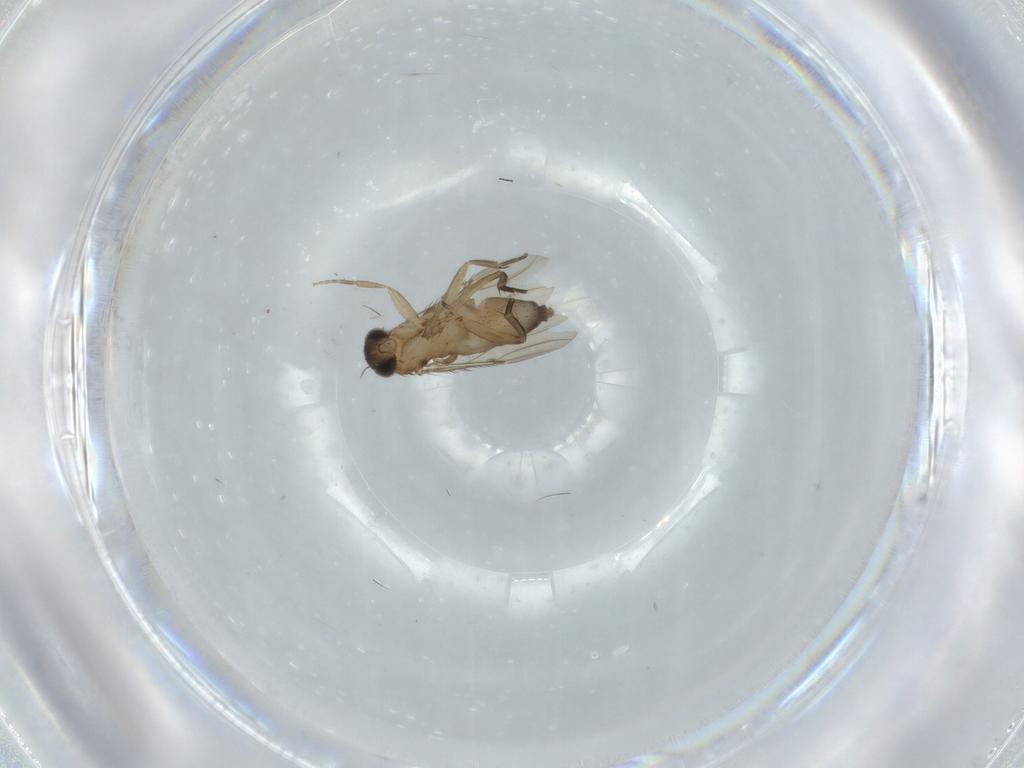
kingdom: Animalia
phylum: Arthropoda
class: Insecta
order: Diptera
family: Phoridae
